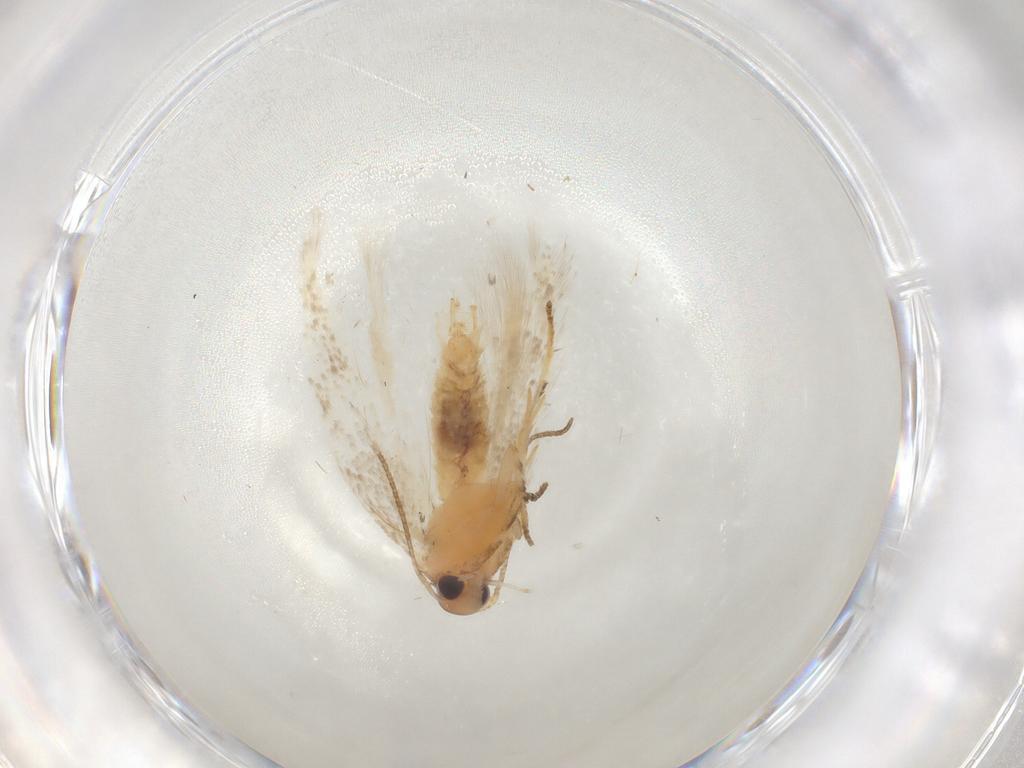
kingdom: Animalia
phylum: Arthropoda
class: Insecta
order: Lepidoptera
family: Gelechiidae
